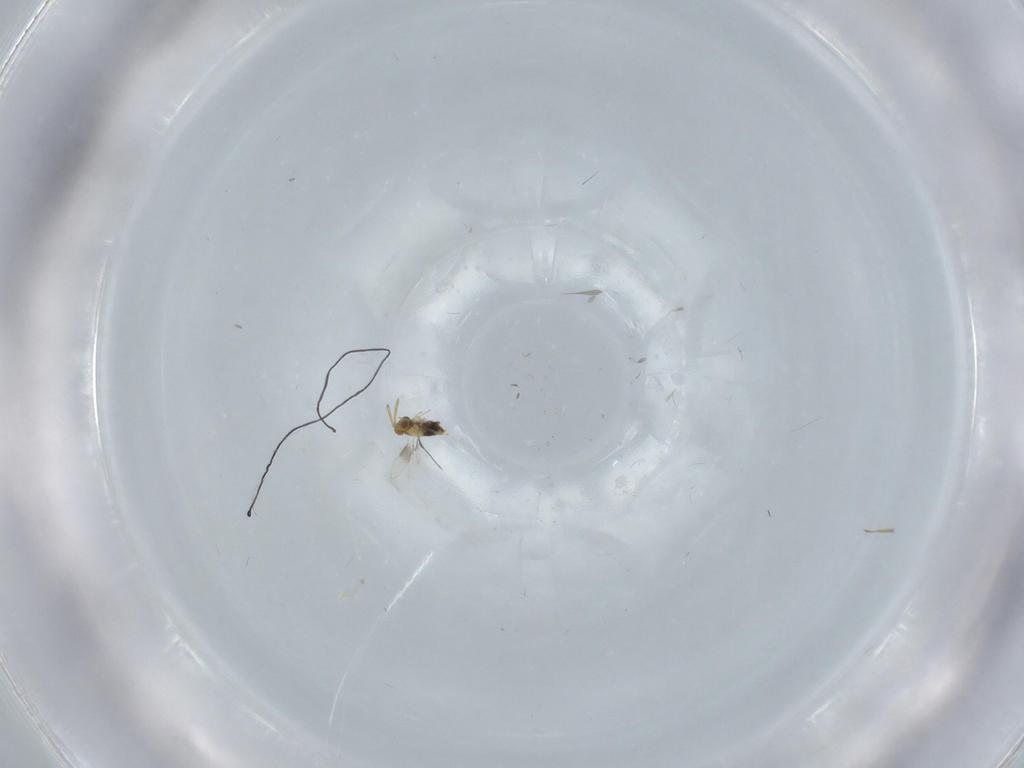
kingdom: Animalia
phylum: Arthropoda
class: Insecta
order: Hymenoptera
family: Aphelinidae
